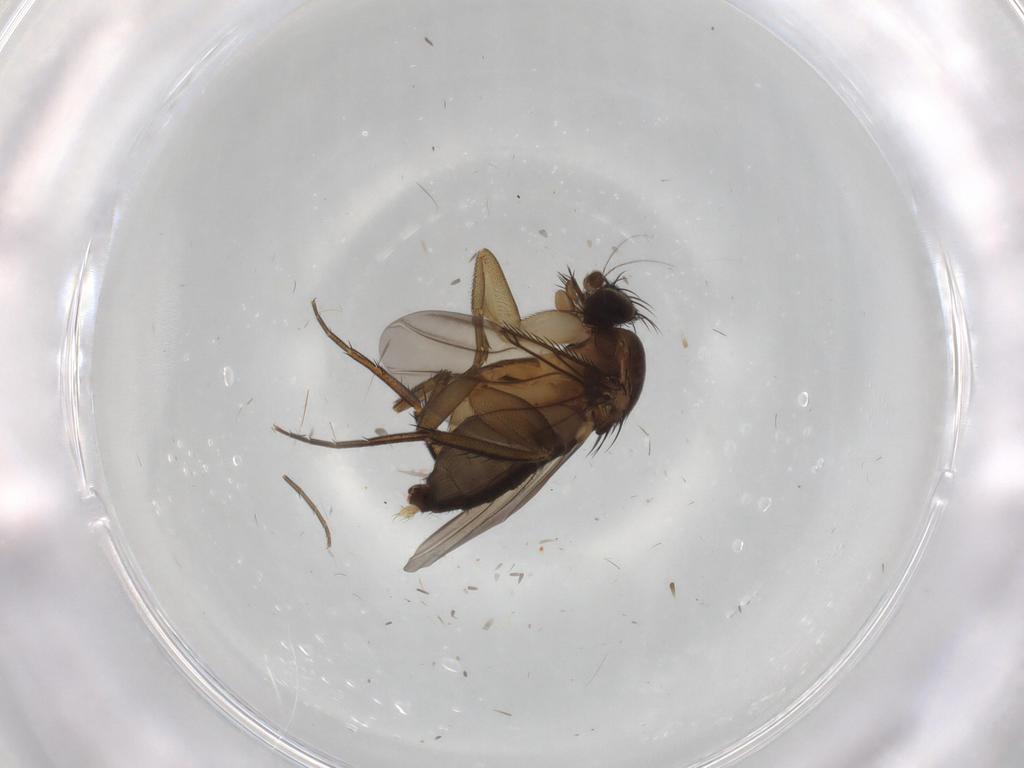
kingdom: Animalia
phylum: Arthropoda
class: Insecta
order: Diptera
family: Phoridae
